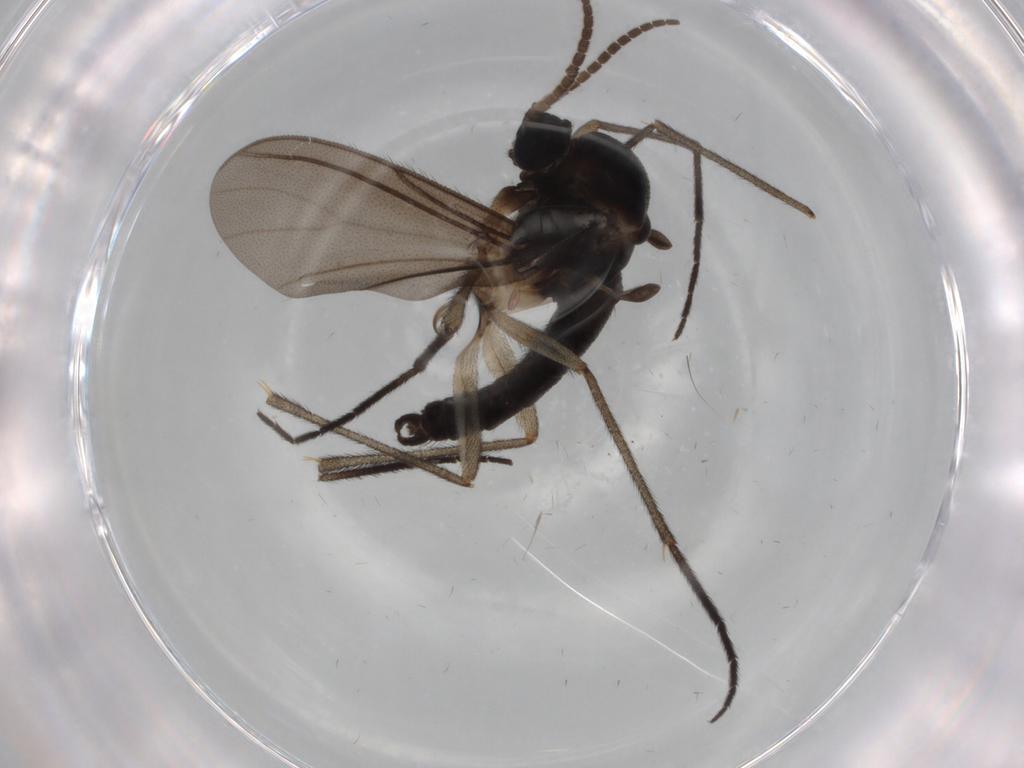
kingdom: Animalia
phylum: Arthropoda
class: Insecta
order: Diptera
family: Sciaridae
